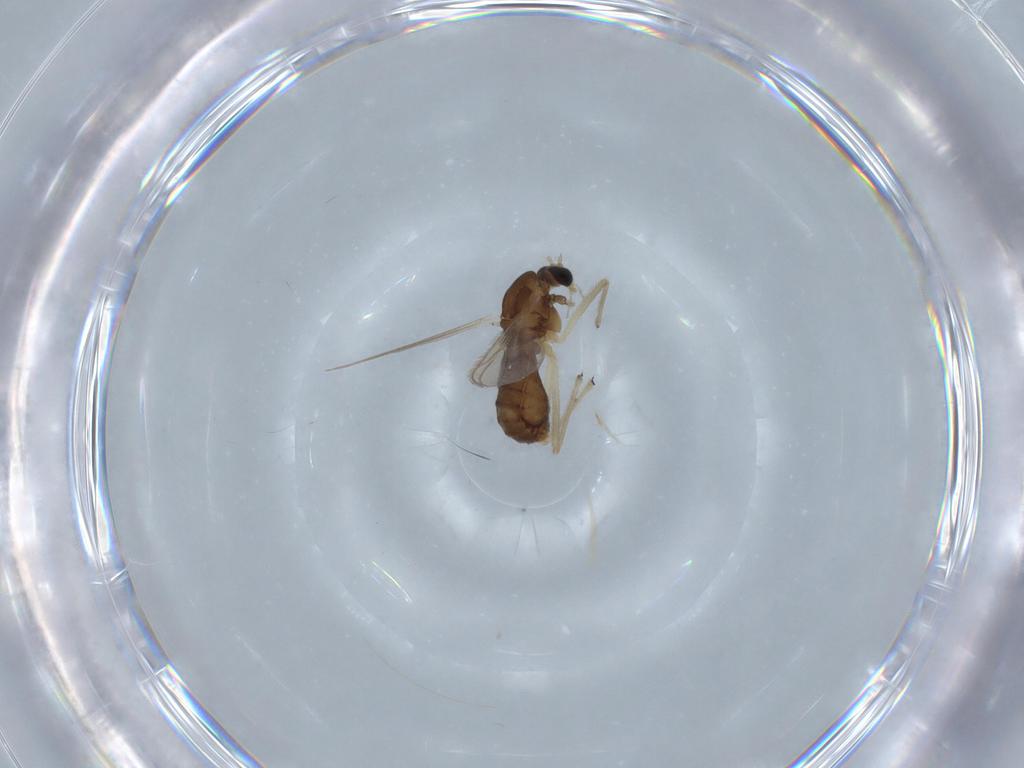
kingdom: Animalia
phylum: Arthropoda
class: Insecta
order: Diptera
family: Chironomidae
